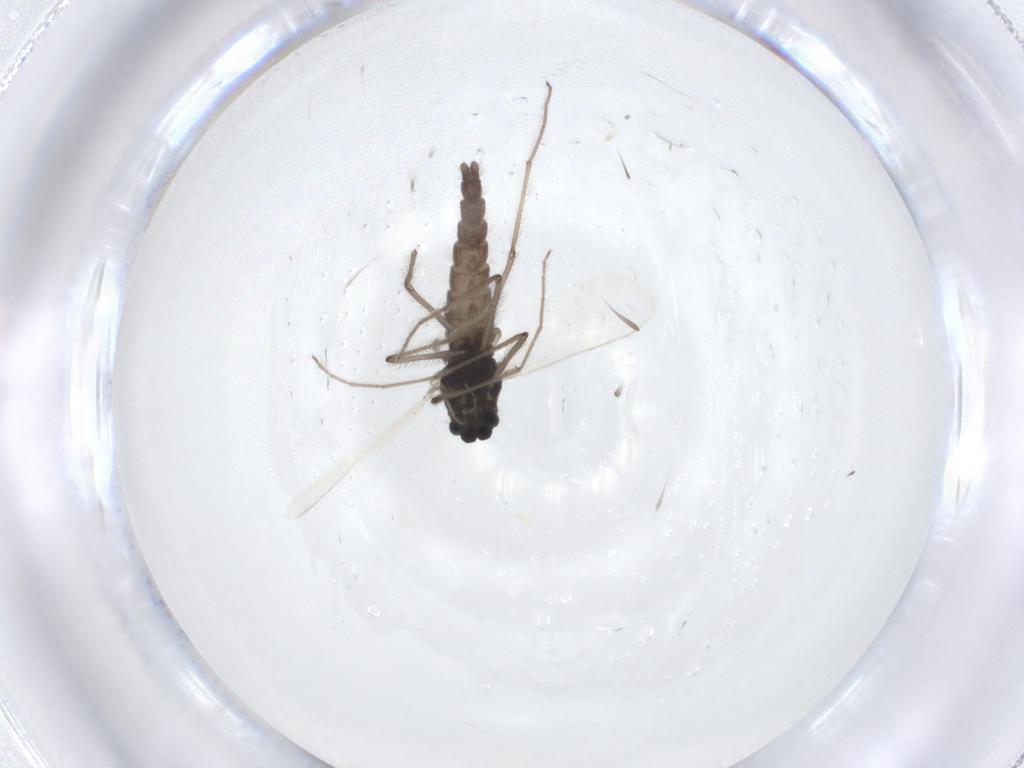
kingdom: Animalia
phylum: Arthropoda
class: Insecta
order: Diptera
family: Phoridae
